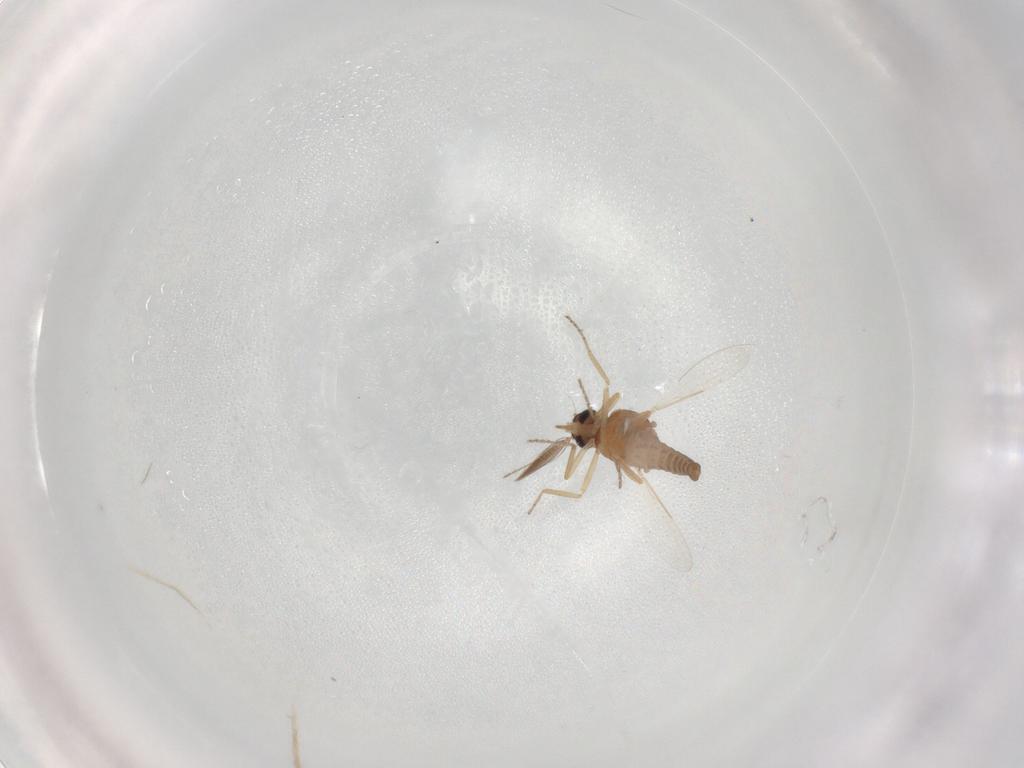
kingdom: Animalia
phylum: Arthropoda
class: Insecta
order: Diptera
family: Ceratopogonidae
